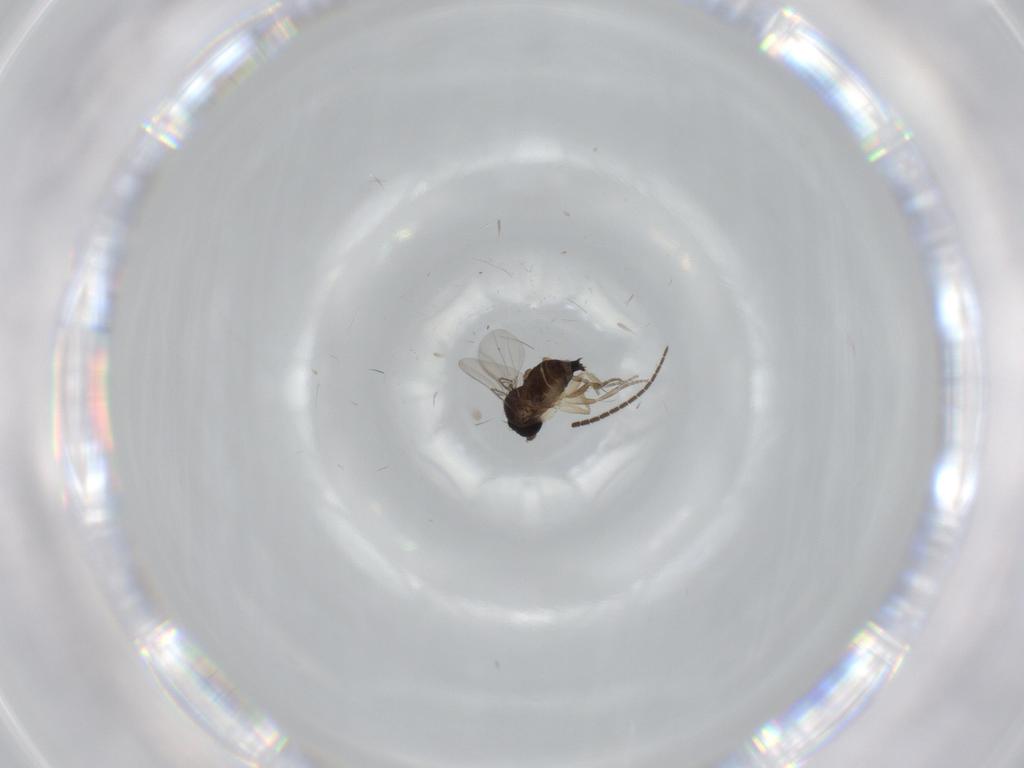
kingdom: Animalia
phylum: Arthropoda
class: Insecta
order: Diptera
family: Phoridae
